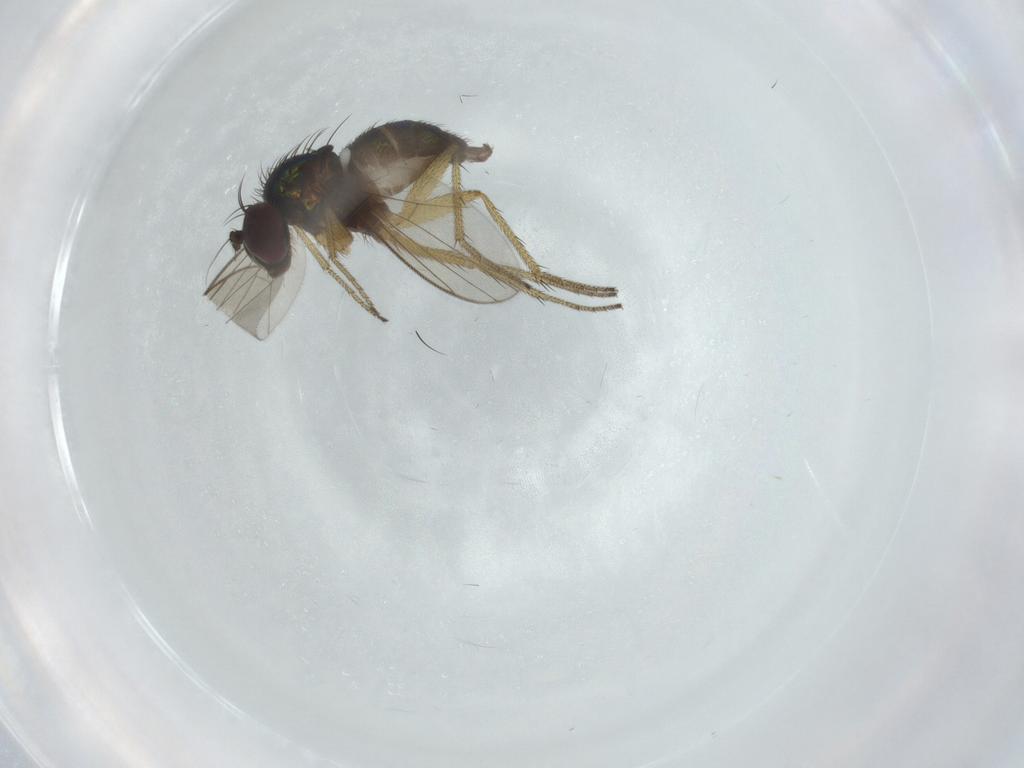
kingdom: Animalia
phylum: Arthropoda
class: Insecta
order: Diptera
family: Dolichopodidae
